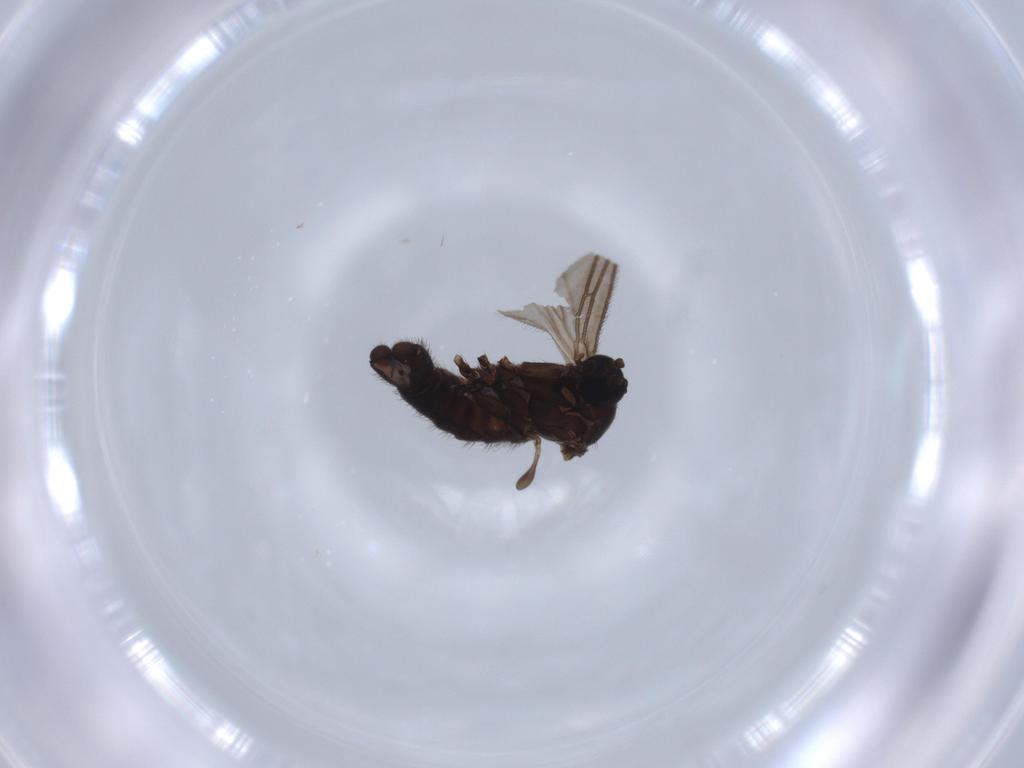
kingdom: Animalia
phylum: Arthropoda
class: Insecta
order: Diptera
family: Chironomidae
